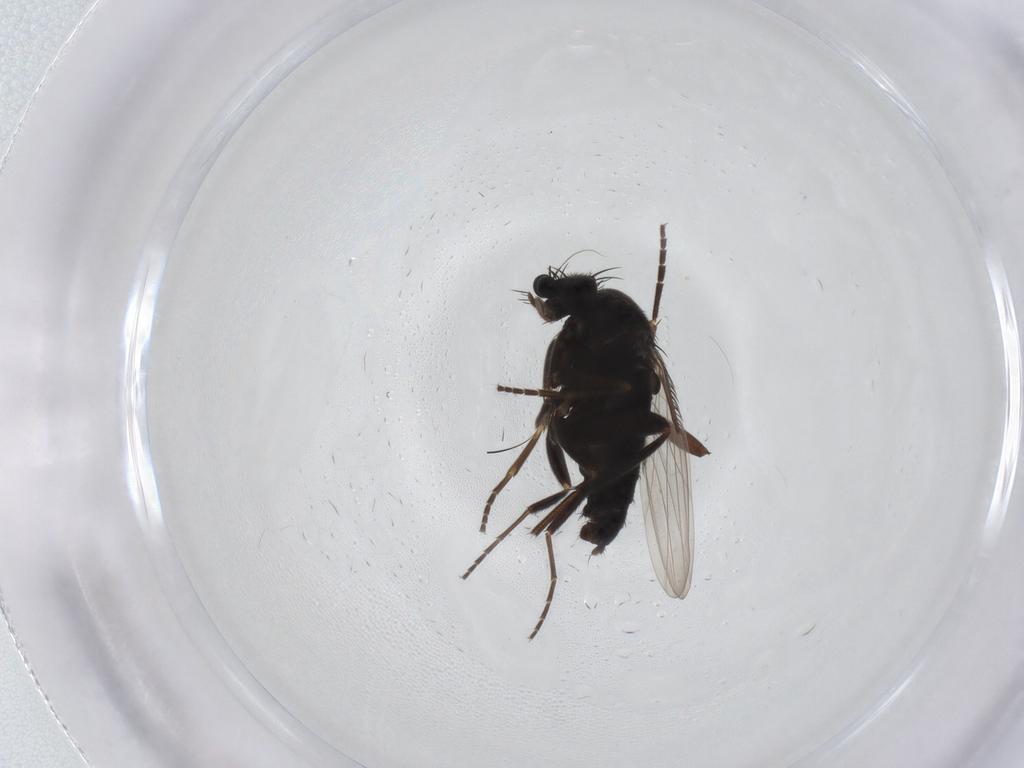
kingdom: Animalia
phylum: Arthropoda
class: Insecta
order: Diptera
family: Phoridae
